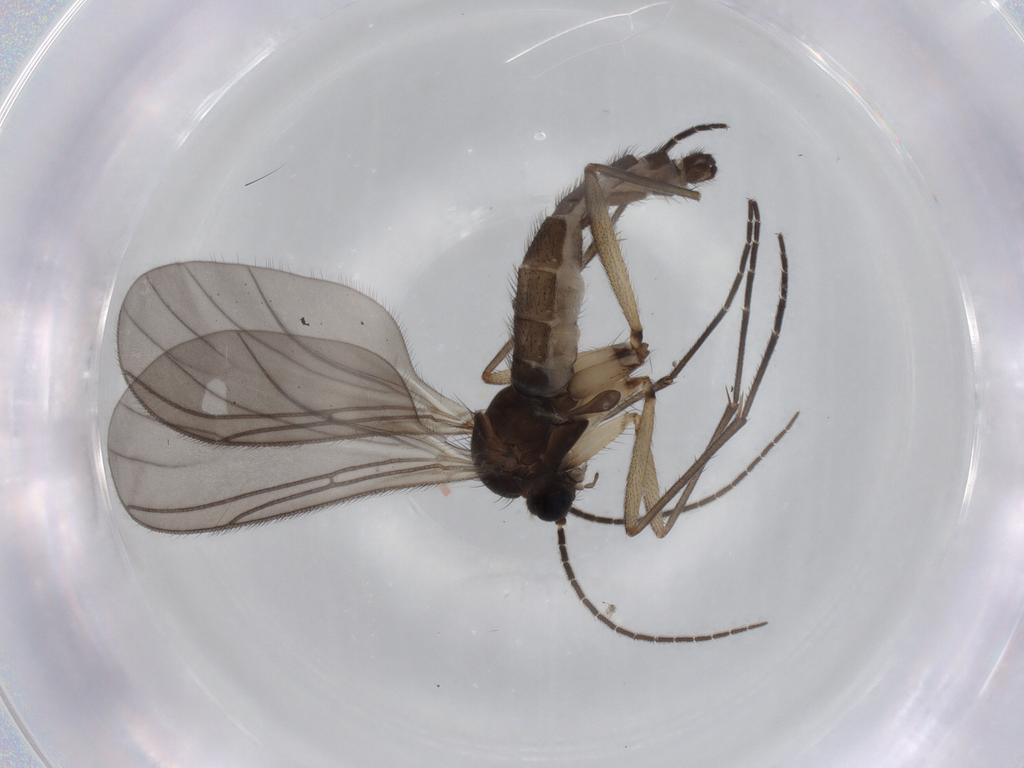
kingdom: Animalia
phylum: Arthropoda
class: Insecta
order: Diptera
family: Sciaridae
